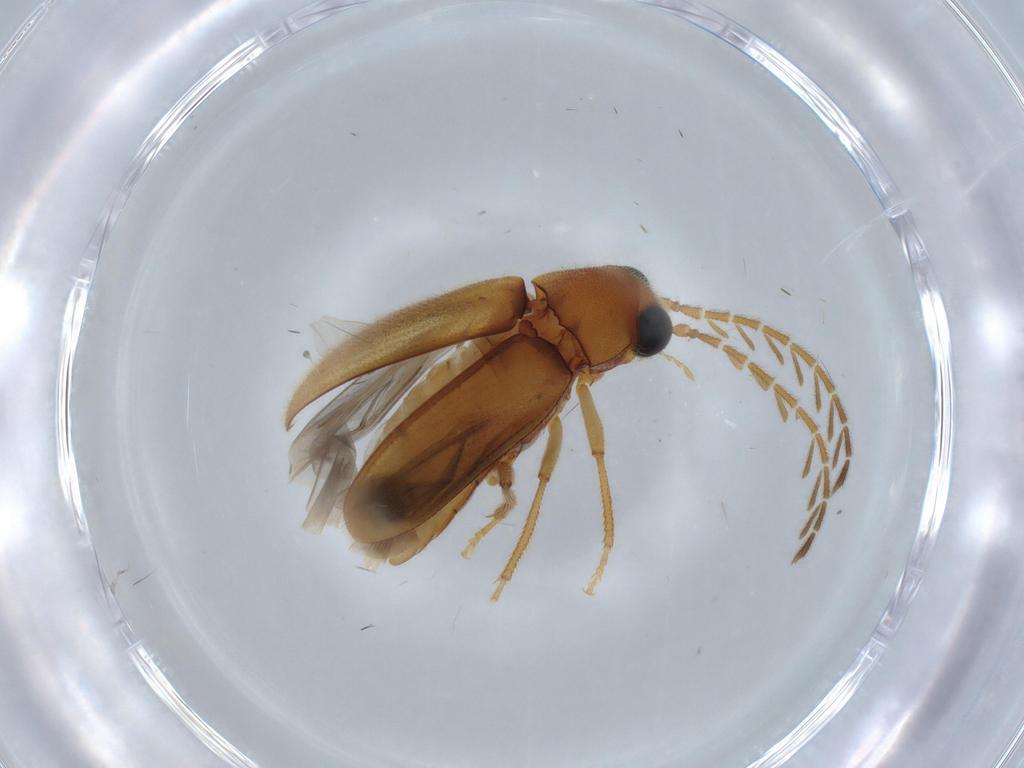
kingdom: Animalia
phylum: Arthropoda
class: Insecta
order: Coleoptera
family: Ptilodactylidae
